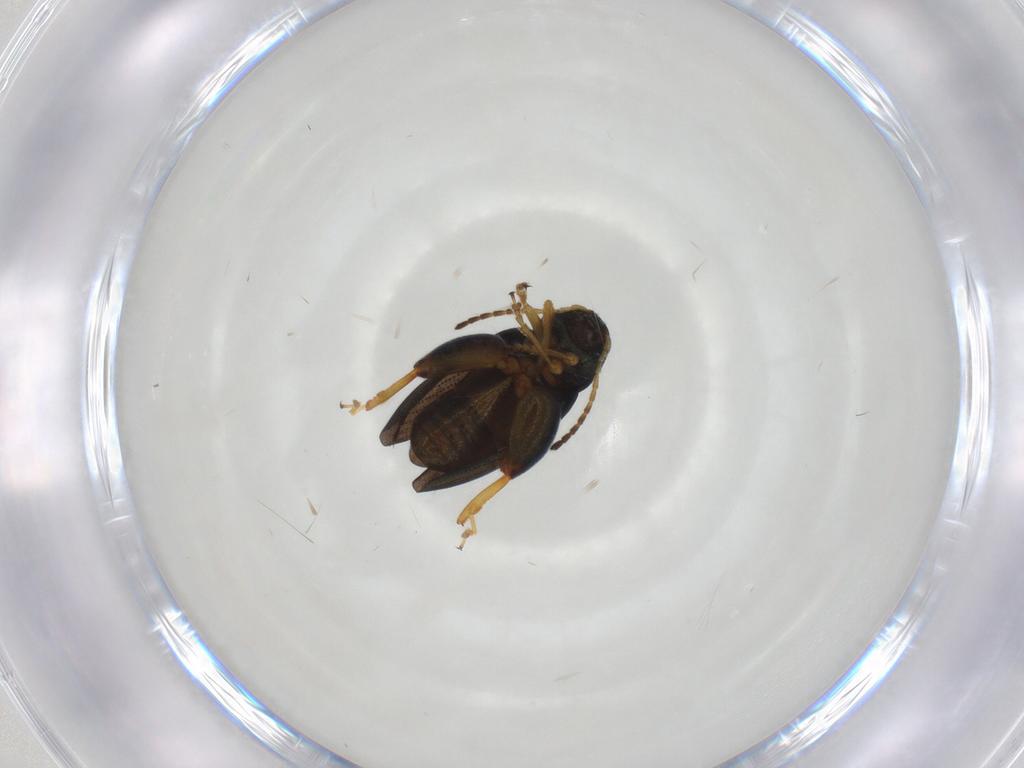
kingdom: Animalia
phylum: Arthropoda
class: Insecta
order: Coleoptera
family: Chrysomelidae
